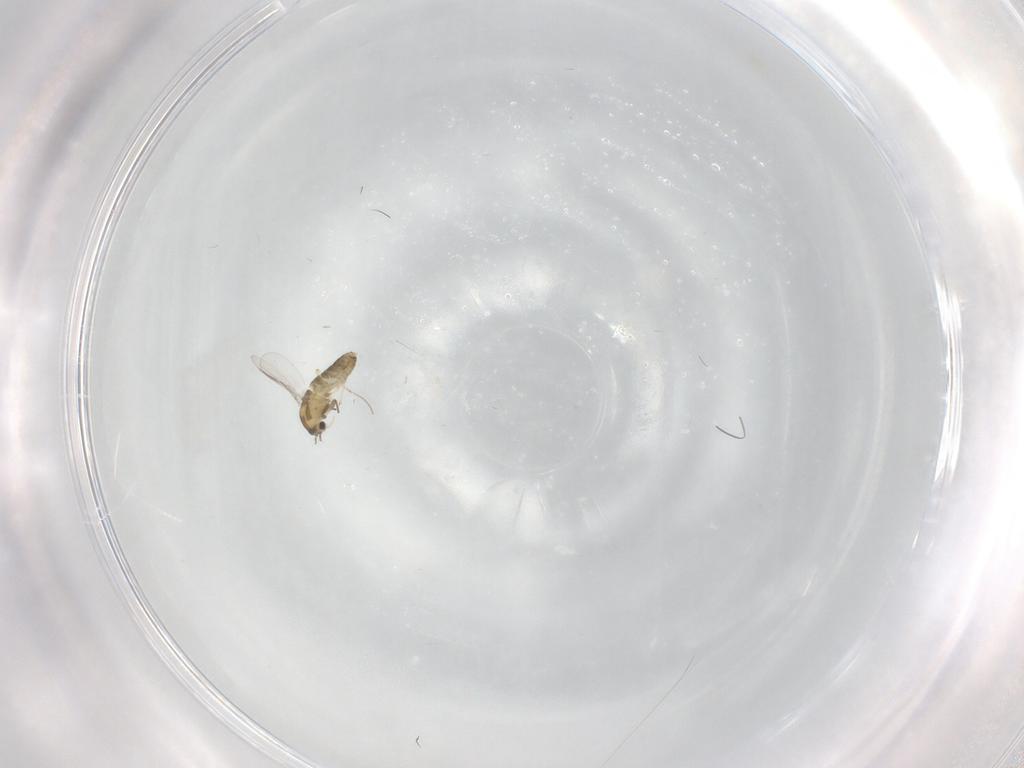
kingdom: Animalia
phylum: Arthropoda
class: Insecta
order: Diptera
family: Chironomidae
